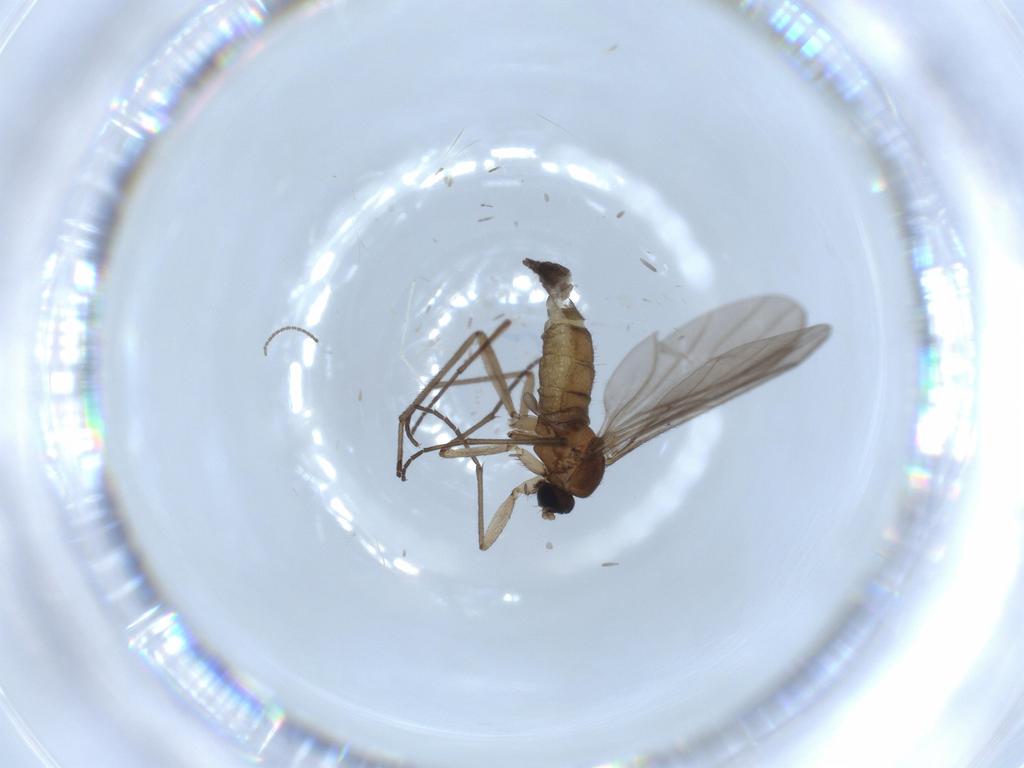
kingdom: Animalia
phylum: Arthropoda
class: Insecta
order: Diptera
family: Sciaridae
